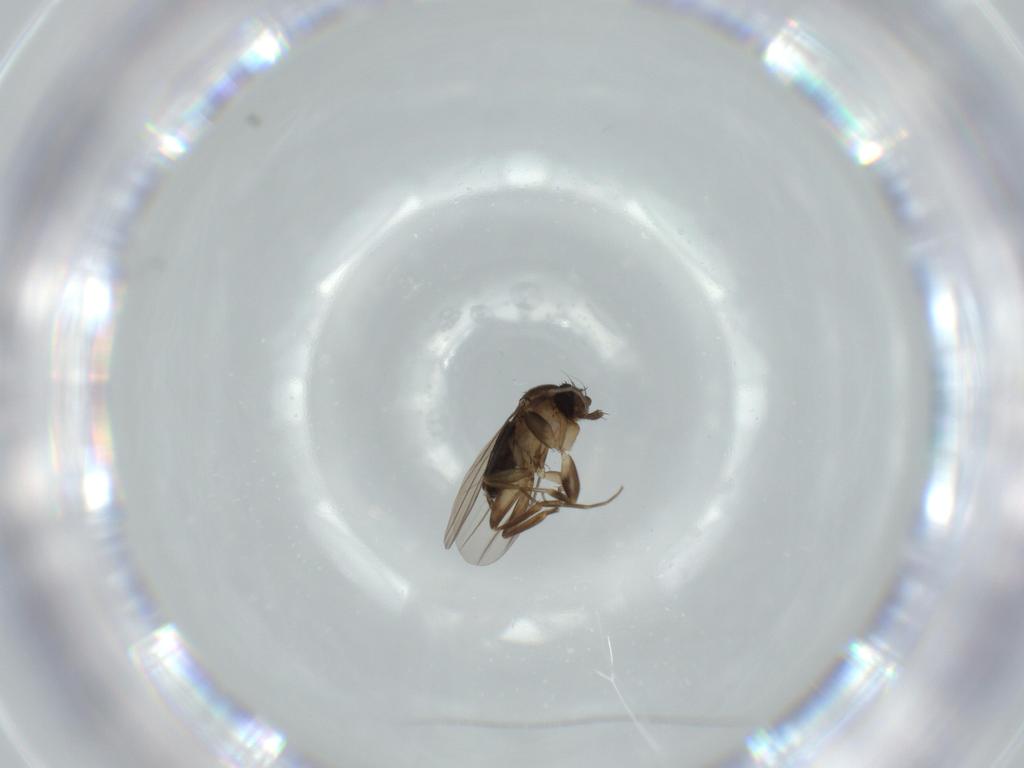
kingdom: Animalia
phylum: Arthropoda
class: Insecta
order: Diptera
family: Phoridae
